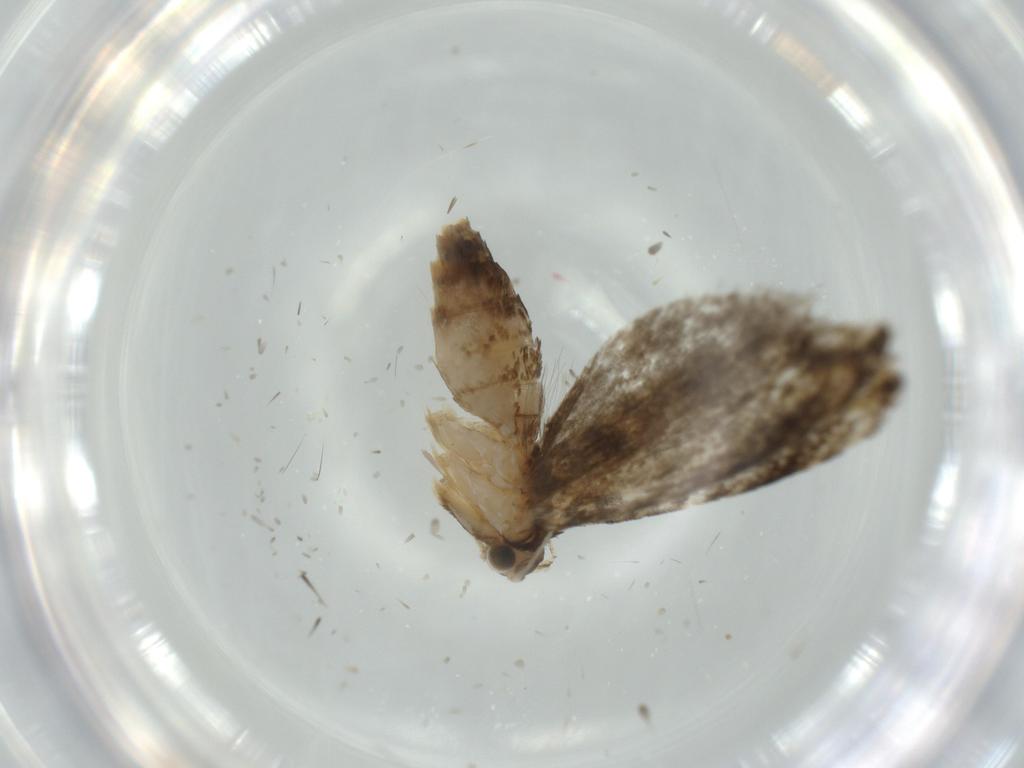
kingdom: Animalia
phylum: Arthropoda
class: Insecta
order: Lepidoptera
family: Tineidae
